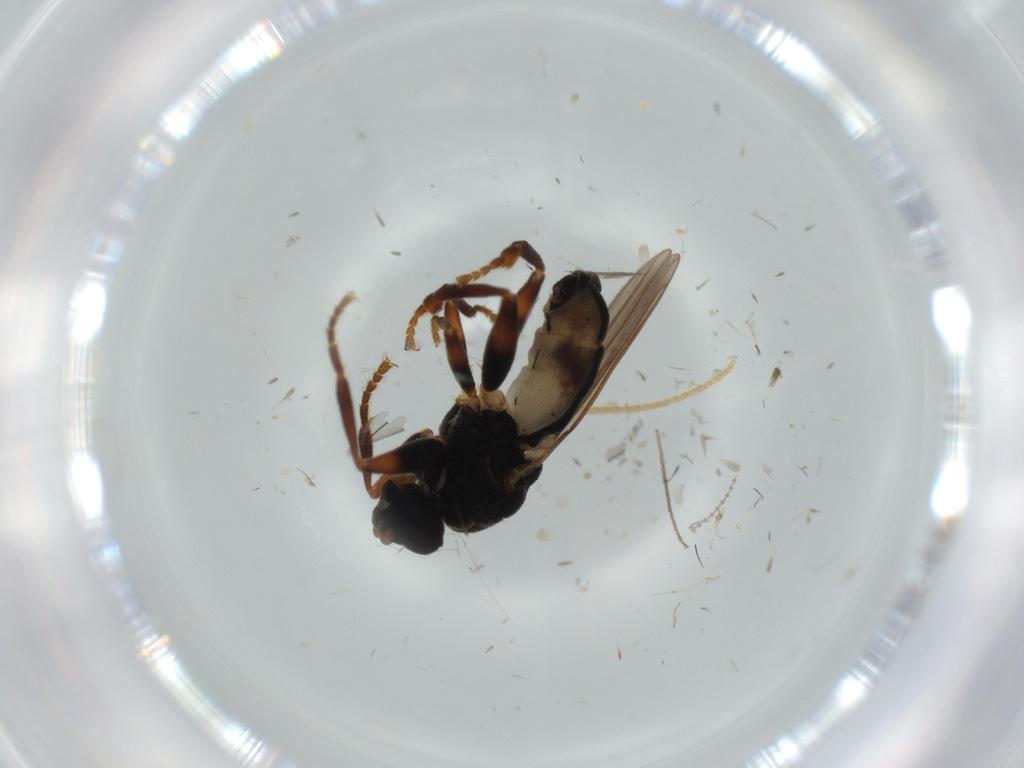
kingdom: Animalia
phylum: Arthropoda
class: Insecta
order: Diptera
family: Lauxaniidae
